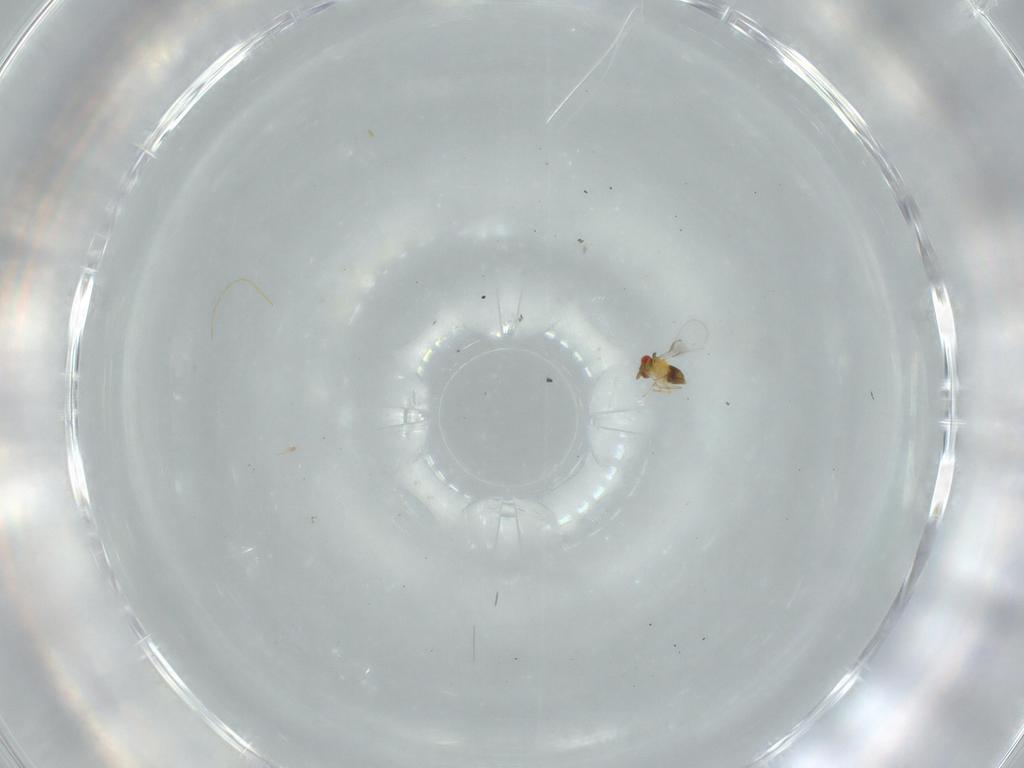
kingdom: Animalia
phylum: Arthropoda
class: Insecta
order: Hymenoptera
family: Trichogrammatidae
